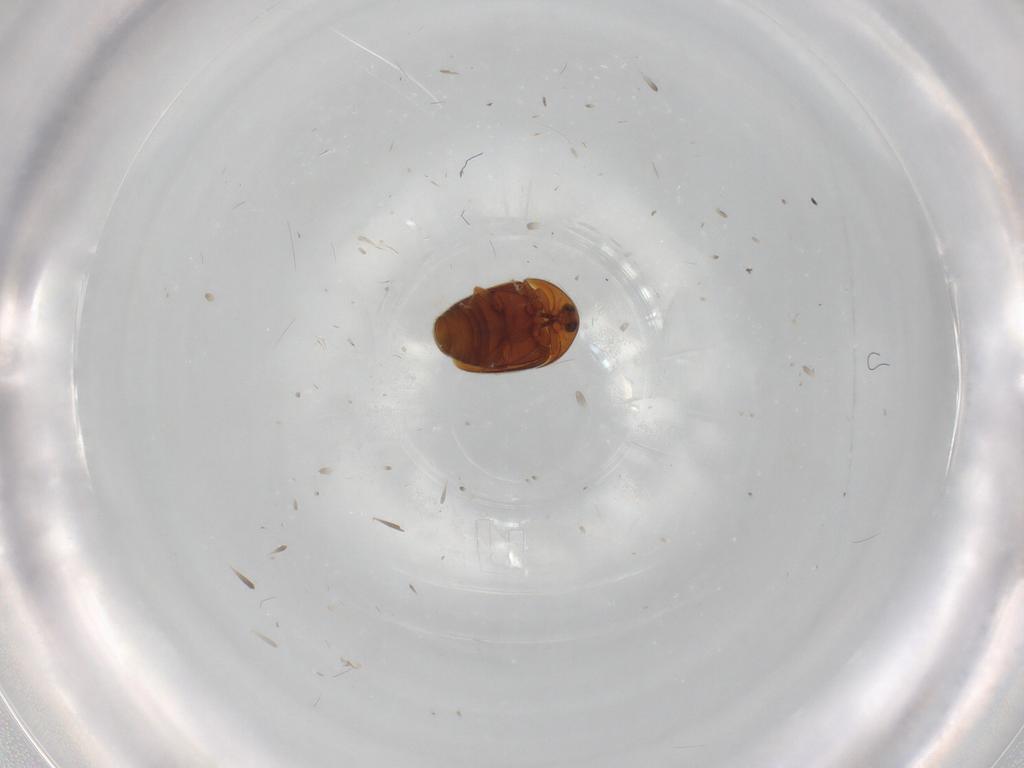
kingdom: Animalia
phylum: Arthropoda
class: Insecta
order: Coleoptera
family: Corylophidae
